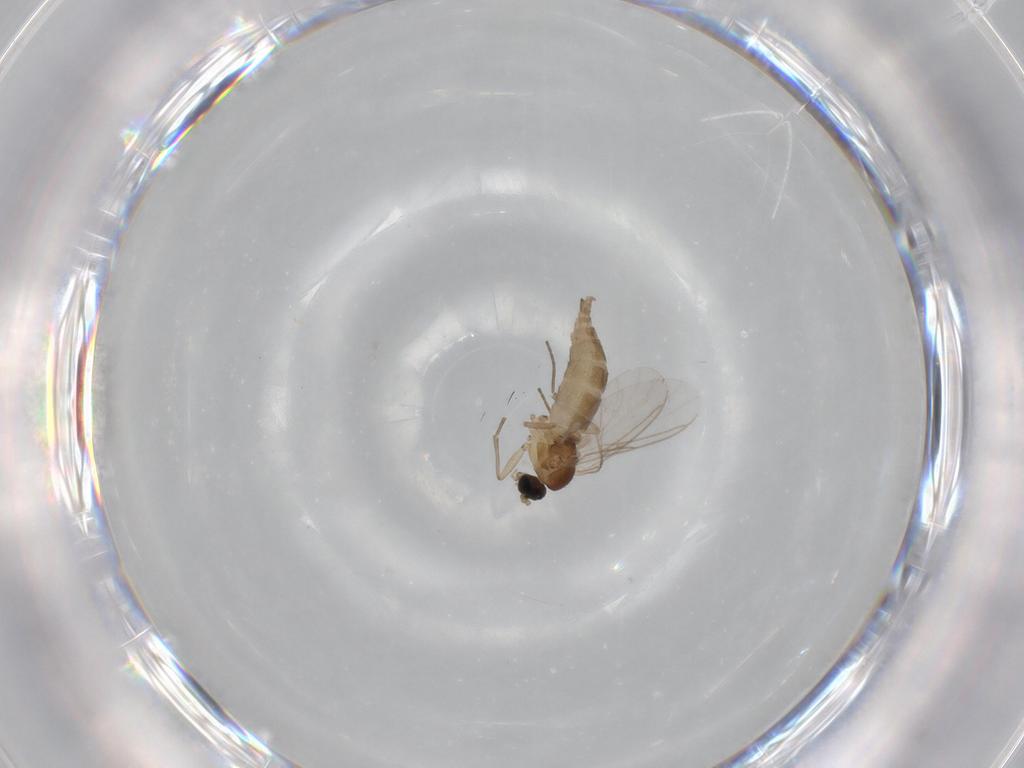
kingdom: Animalia
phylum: Arthropoda
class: Insecta
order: Diptera
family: Sciaridae
